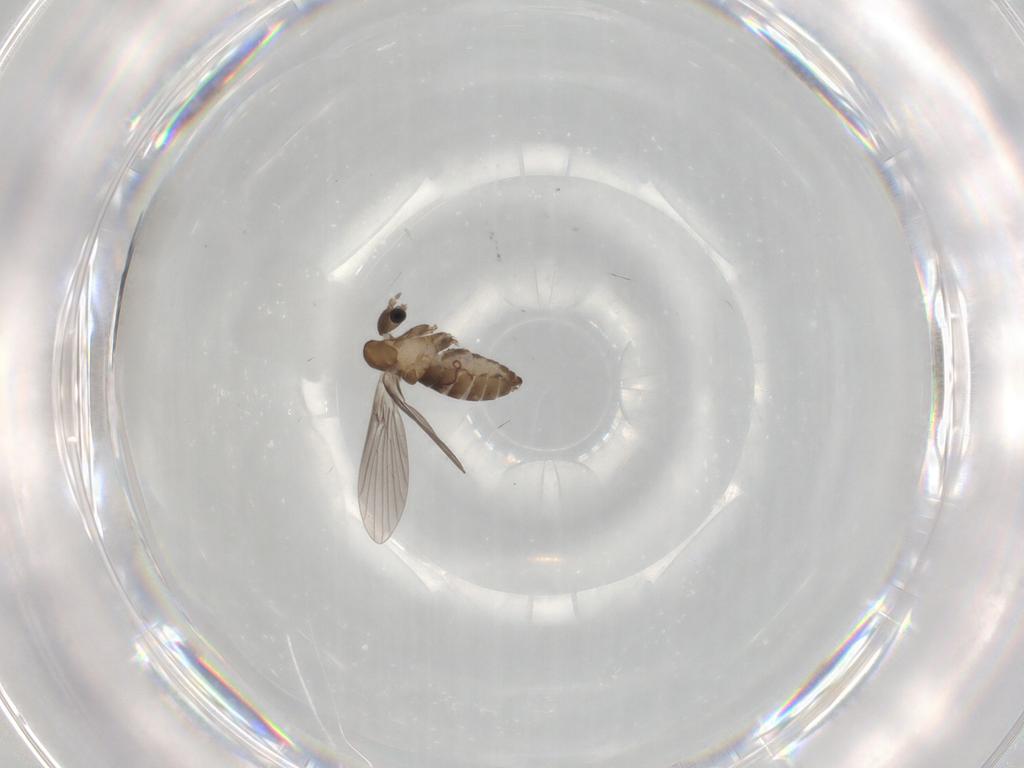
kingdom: Animalia
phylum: Arthropoda
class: Insecta
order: Diptera
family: Psychodidae
